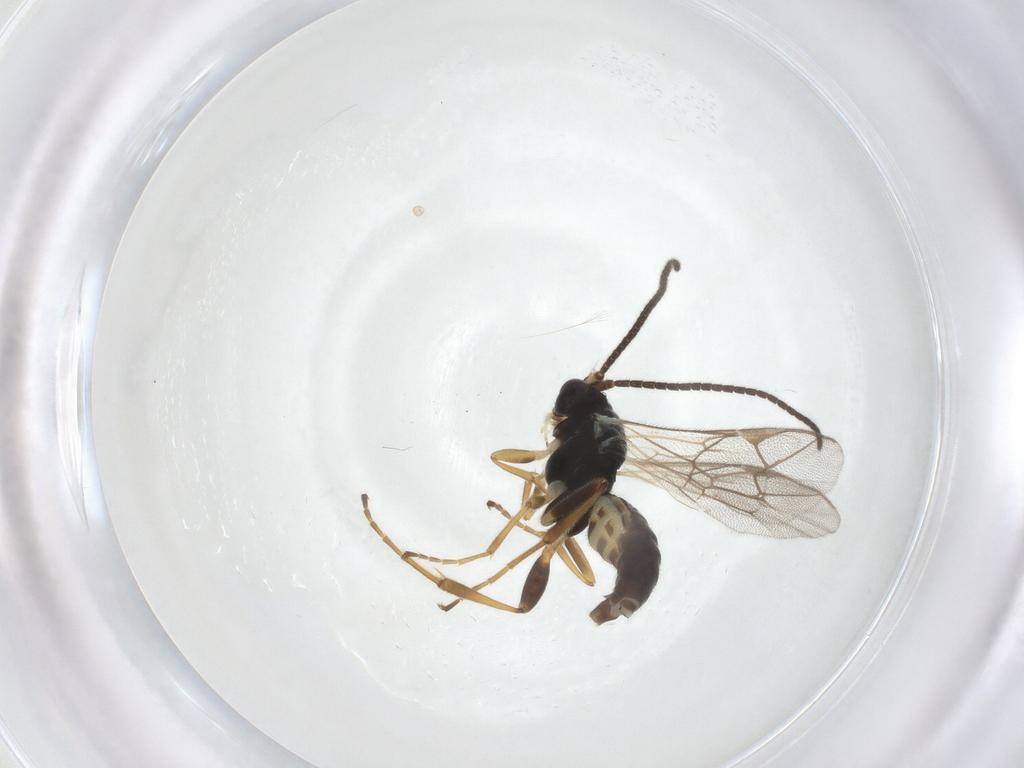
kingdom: Animalia
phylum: Arthropoda
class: Insecta
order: Hymenoptera
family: Ichneumonidae
